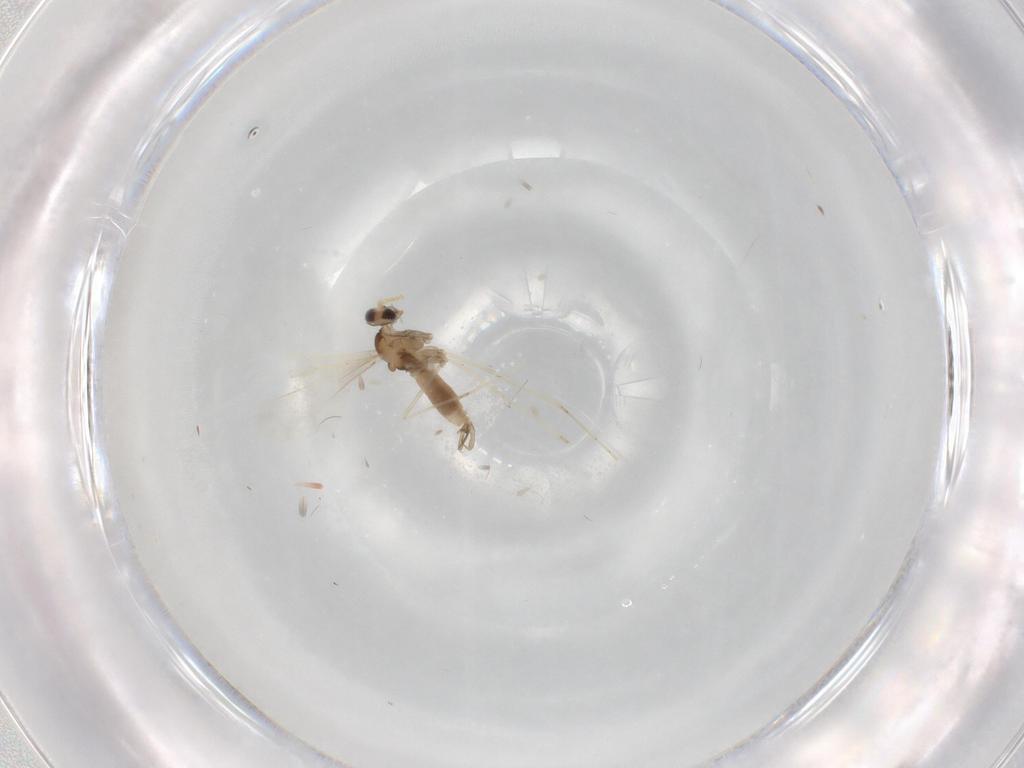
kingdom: Animalia
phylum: Arthropoda
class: Insecta
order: Diptera
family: Cecidomyiidae
